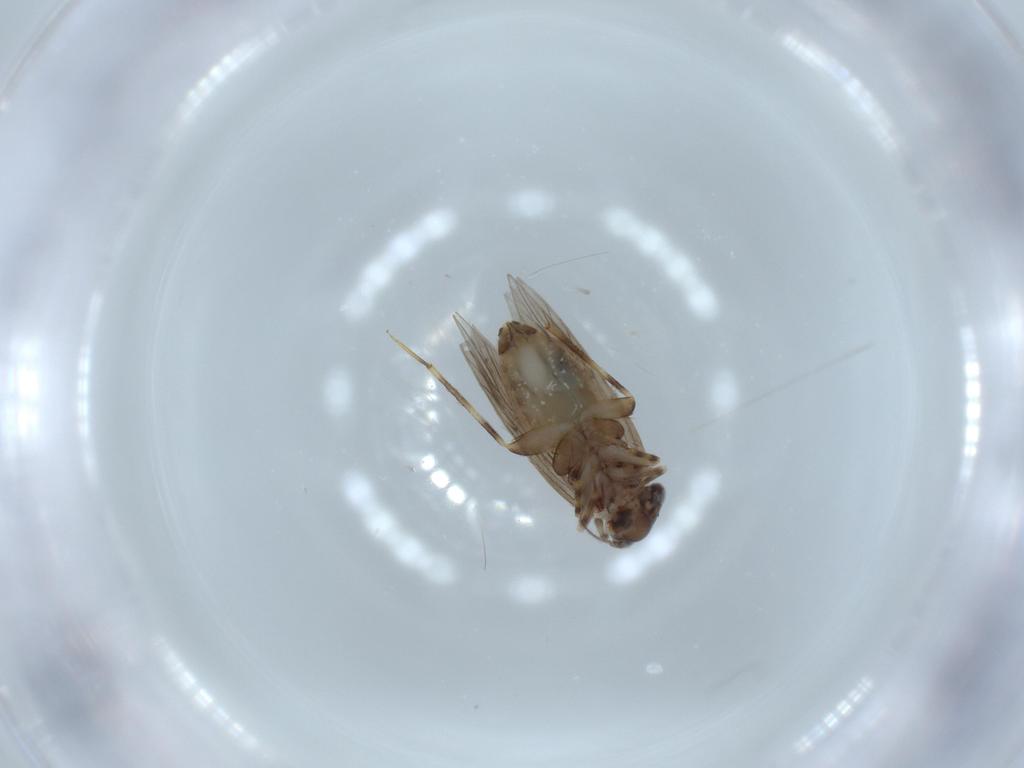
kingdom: Animalia
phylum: Arthropoda
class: Insecta
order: Psocodea
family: Lepidopsocidae
